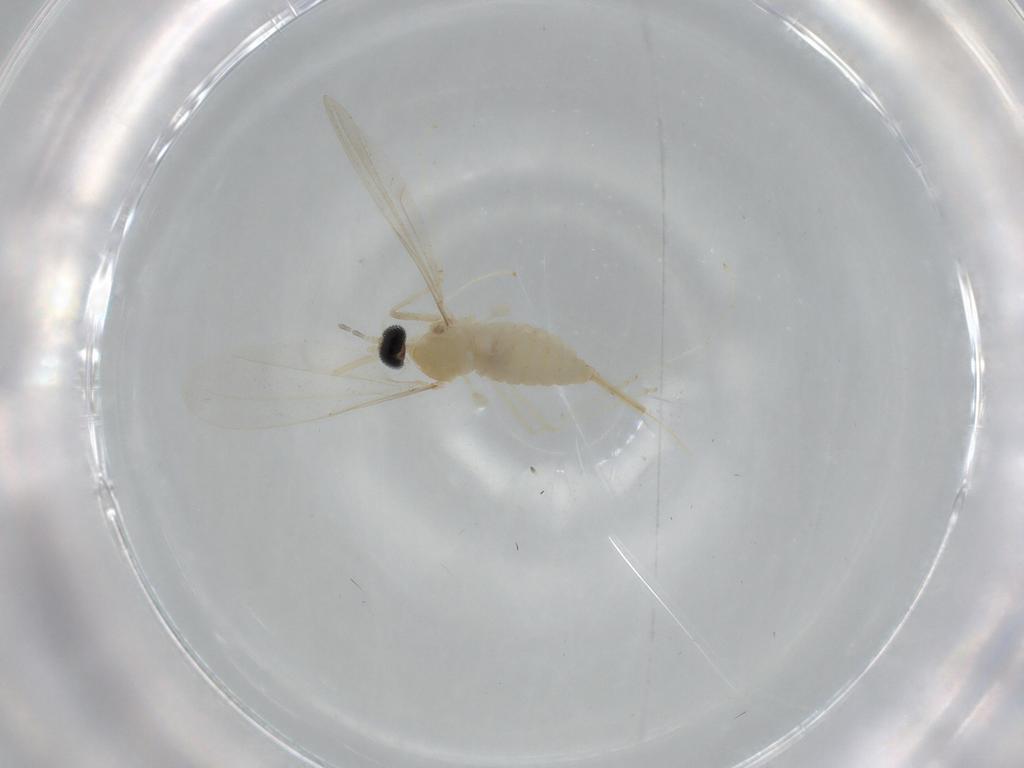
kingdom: Animalia
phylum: Arthropoda
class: Insecta
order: Diptera
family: Cecidomyiidae
